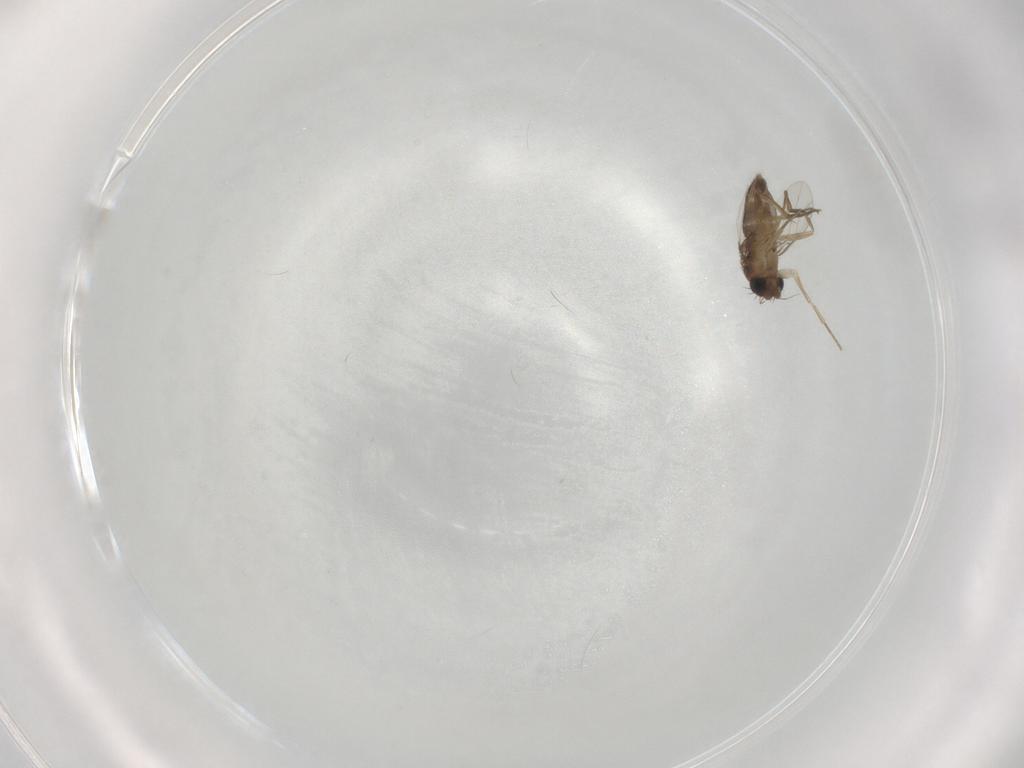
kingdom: Animalia
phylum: Arthropoda
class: Insecta
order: Diptera
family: Phoridae
